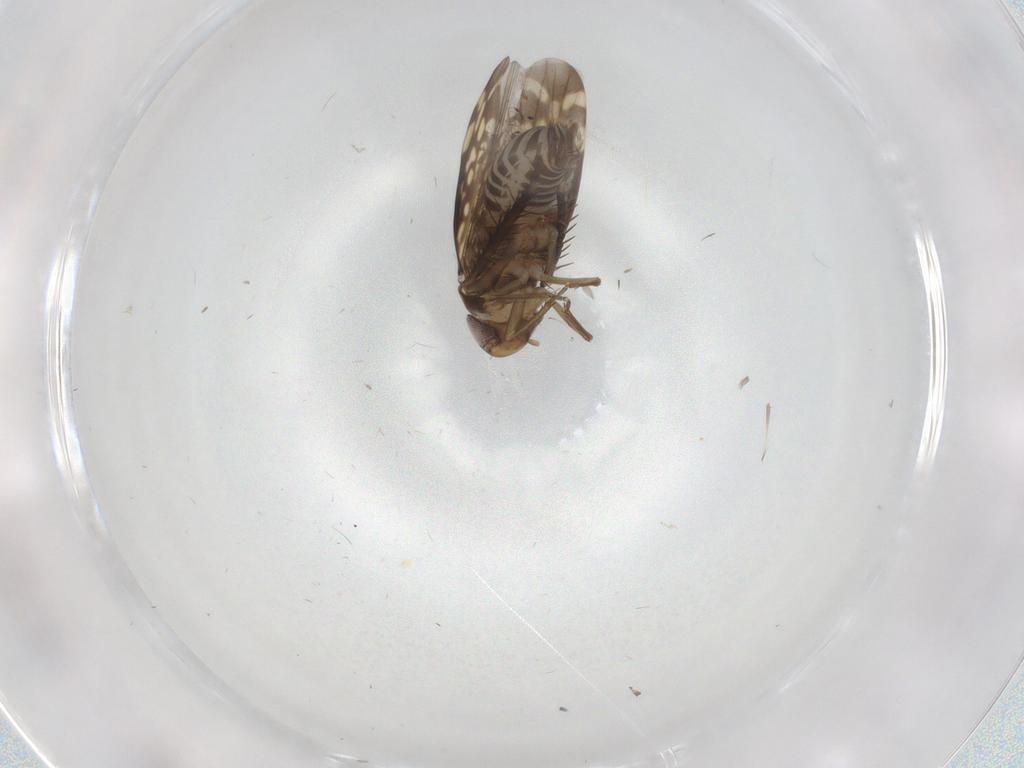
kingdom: Animalia
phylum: Arthropoda
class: Insecta
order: Hemiptera
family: Cicadellidae
